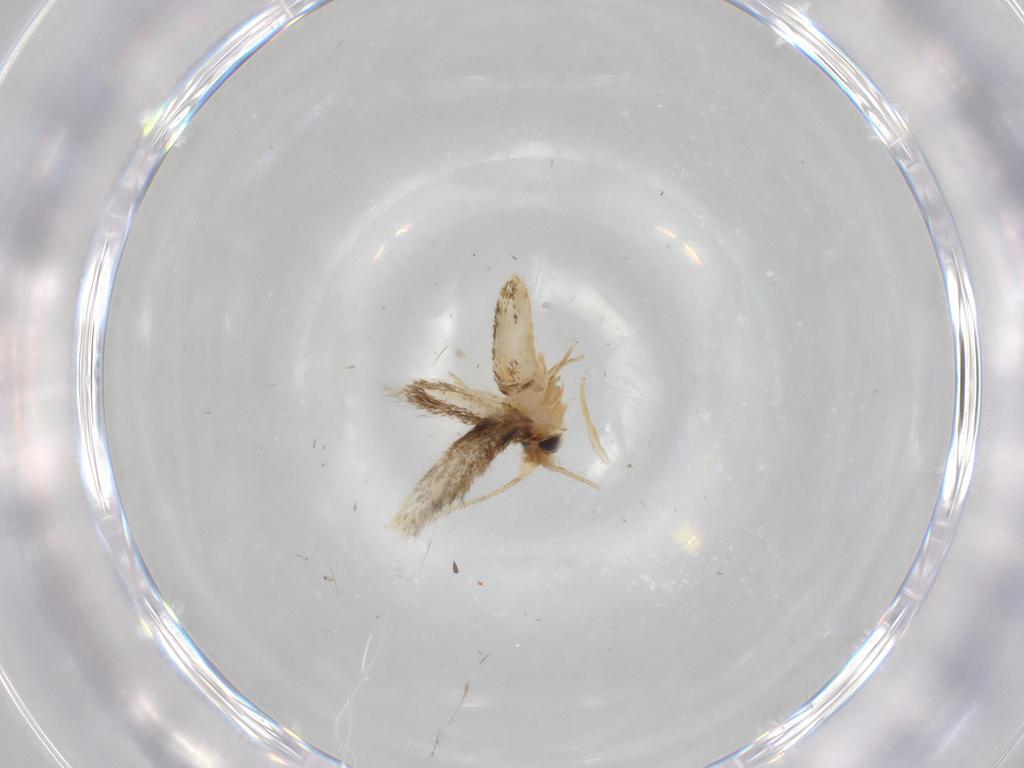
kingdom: Animalia
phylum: Arthropoda
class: Insecta
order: Lepidoptera
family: Nepticulidae
